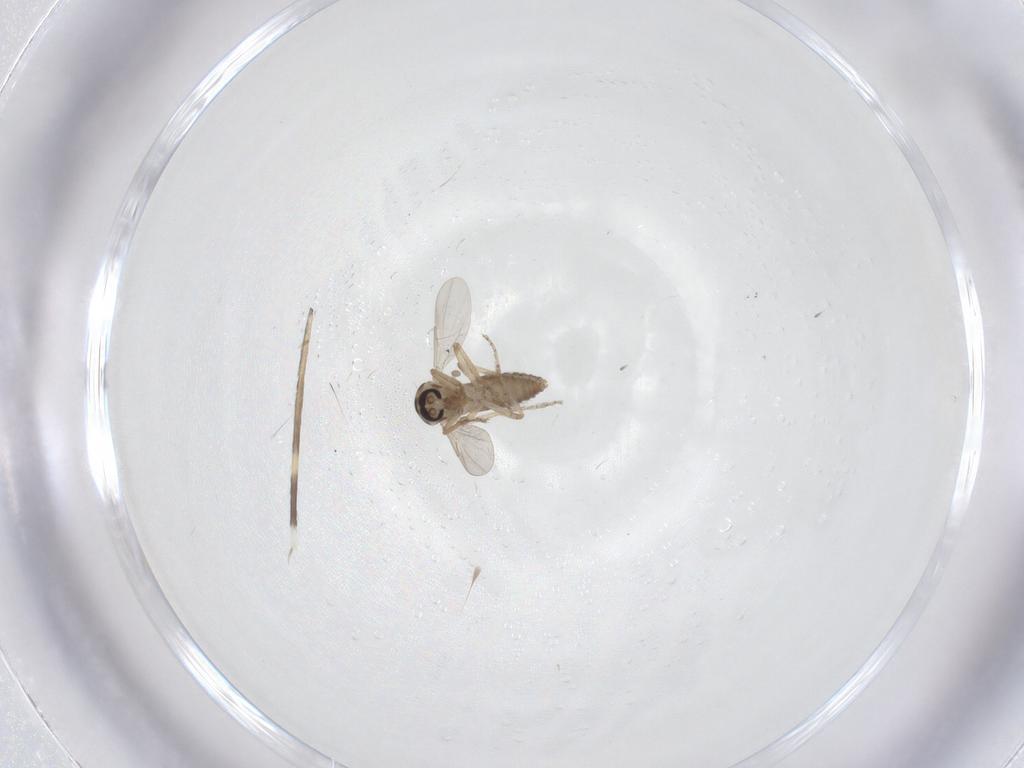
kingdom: Animalia
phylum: Arthropoda
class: Insecta
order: Diptera
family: Ceratopogonidae
